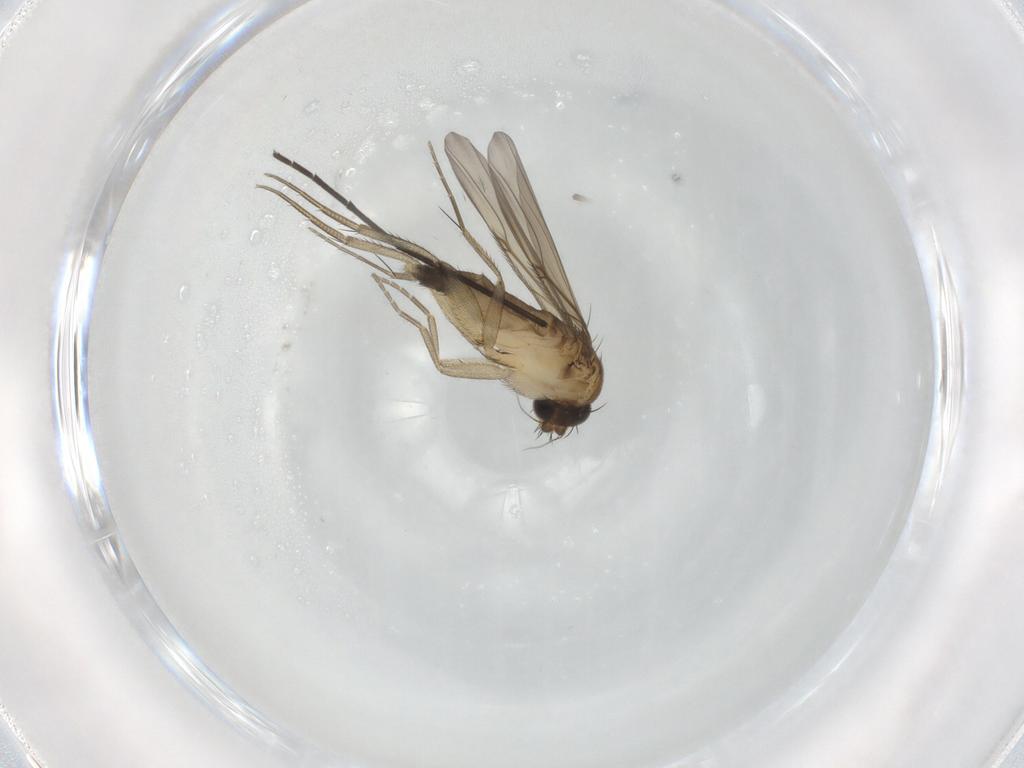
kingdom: Animalia
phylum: Arthropoda
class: Insecta
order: Diptera
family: Phoridae
